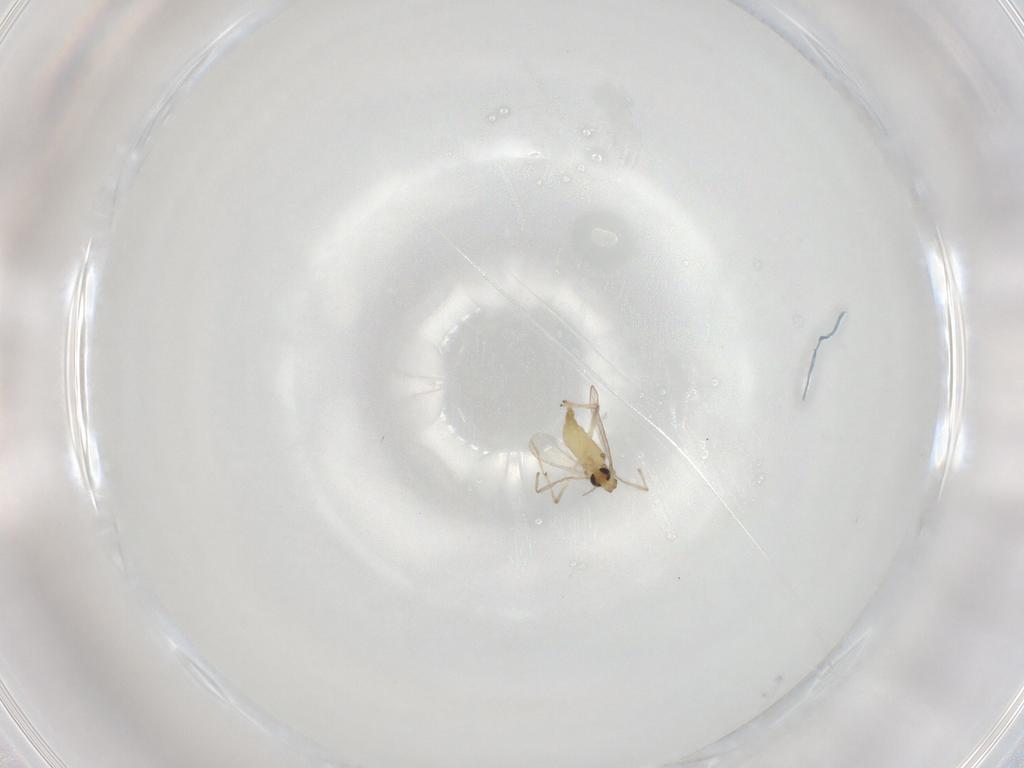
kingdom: Animalia
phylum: Arthropoda
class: Insecta
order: Diptera
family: Chironomidae
